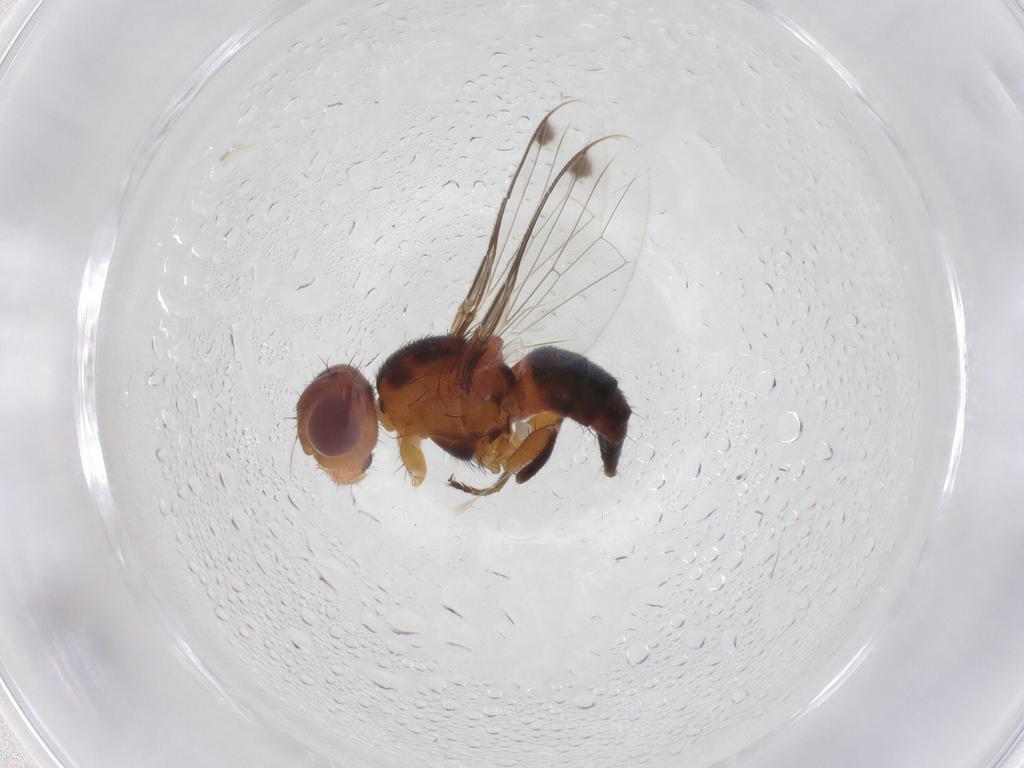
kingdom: Animalia
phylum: Arthropoda
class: Insecta
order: Diptera
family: Richardiidae
